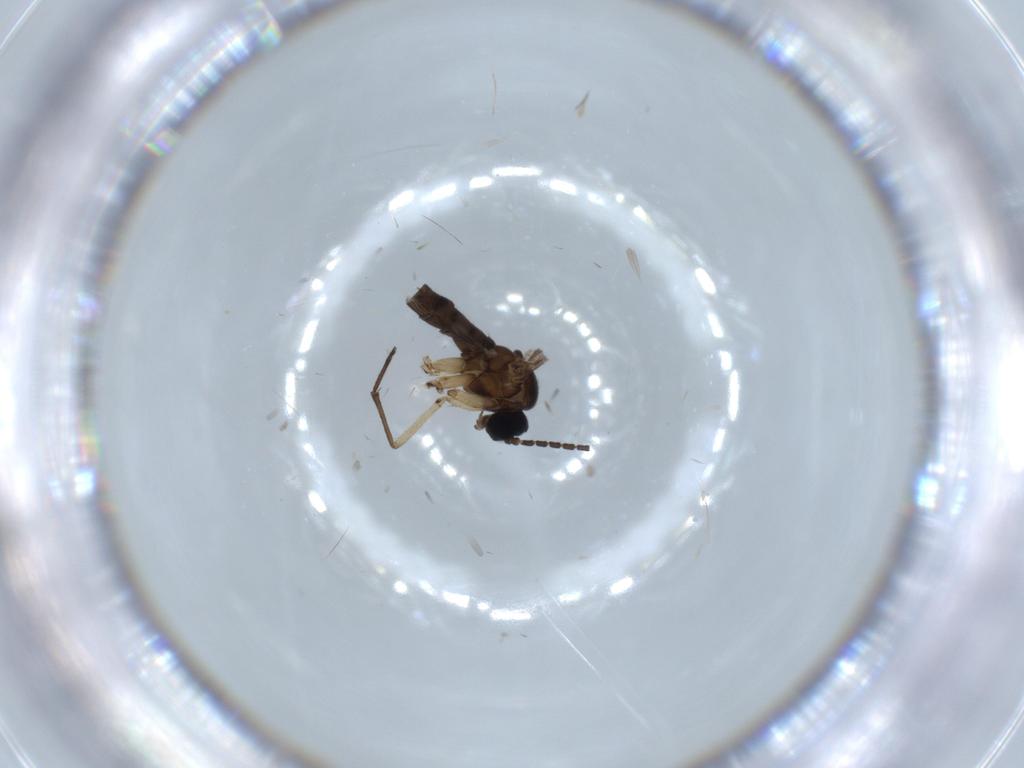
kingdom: Animalia
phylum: Arthropoda
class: Insecta
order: Diptera
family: Sciaridae
